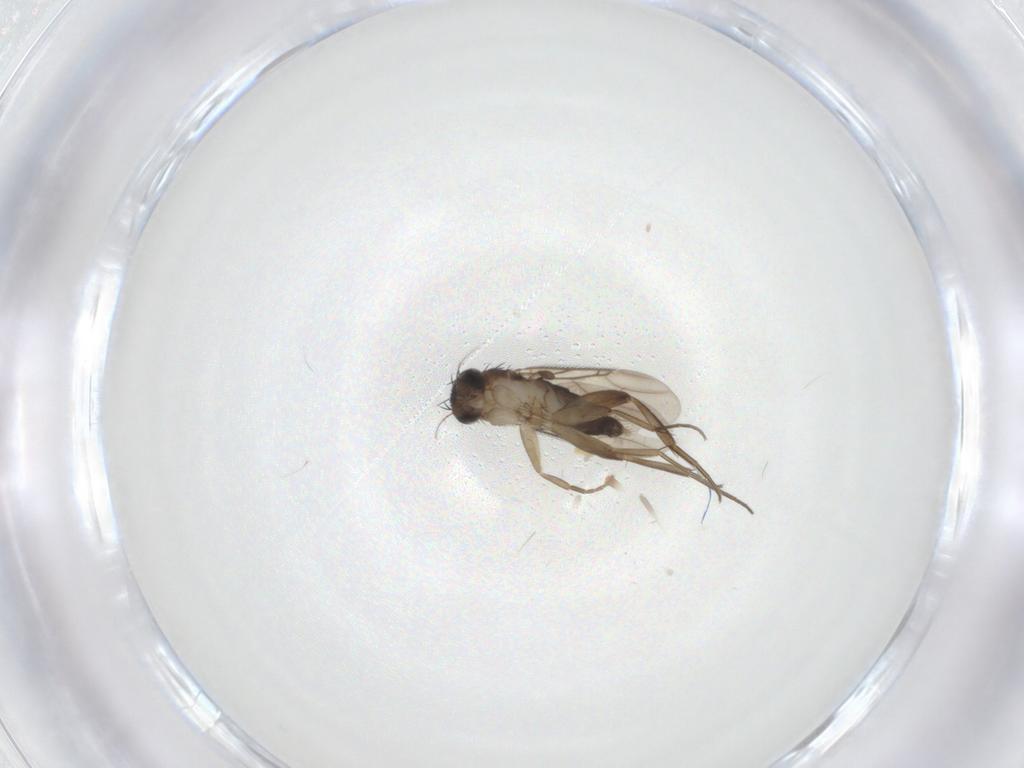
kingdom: Animalia
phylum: Arthropoda
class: Insecta
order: Diptera
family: Phoridae
